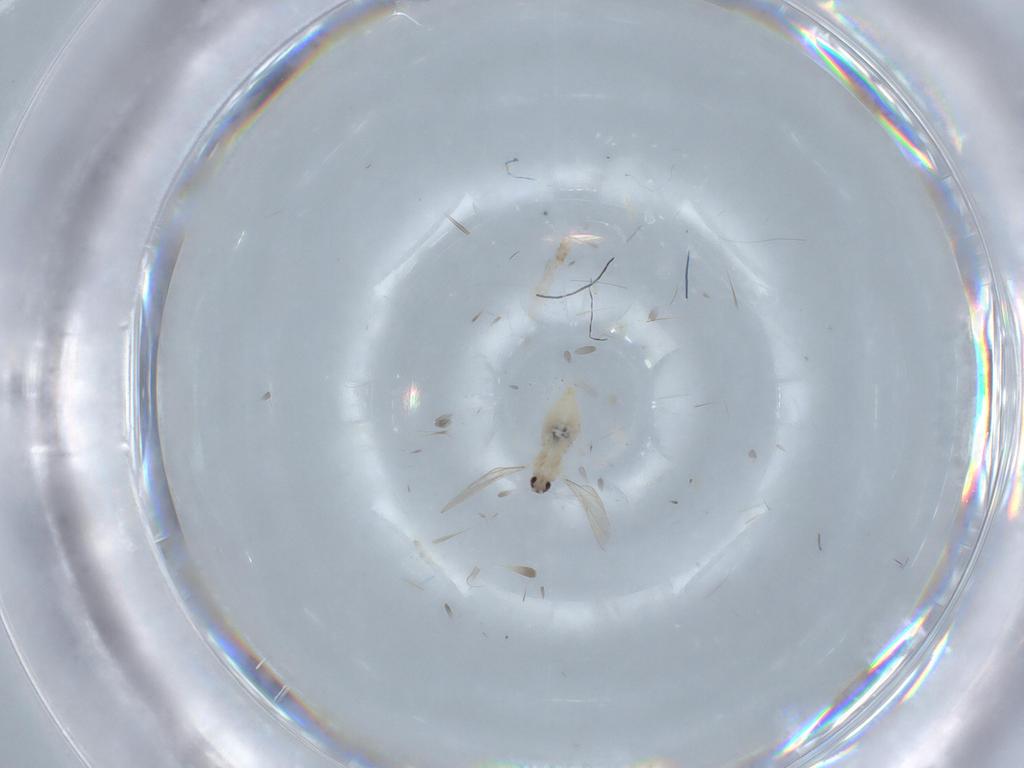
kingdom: Animalia
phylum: Arthropoda
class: Insecta
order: Diptera
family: Cecidomyiidae
